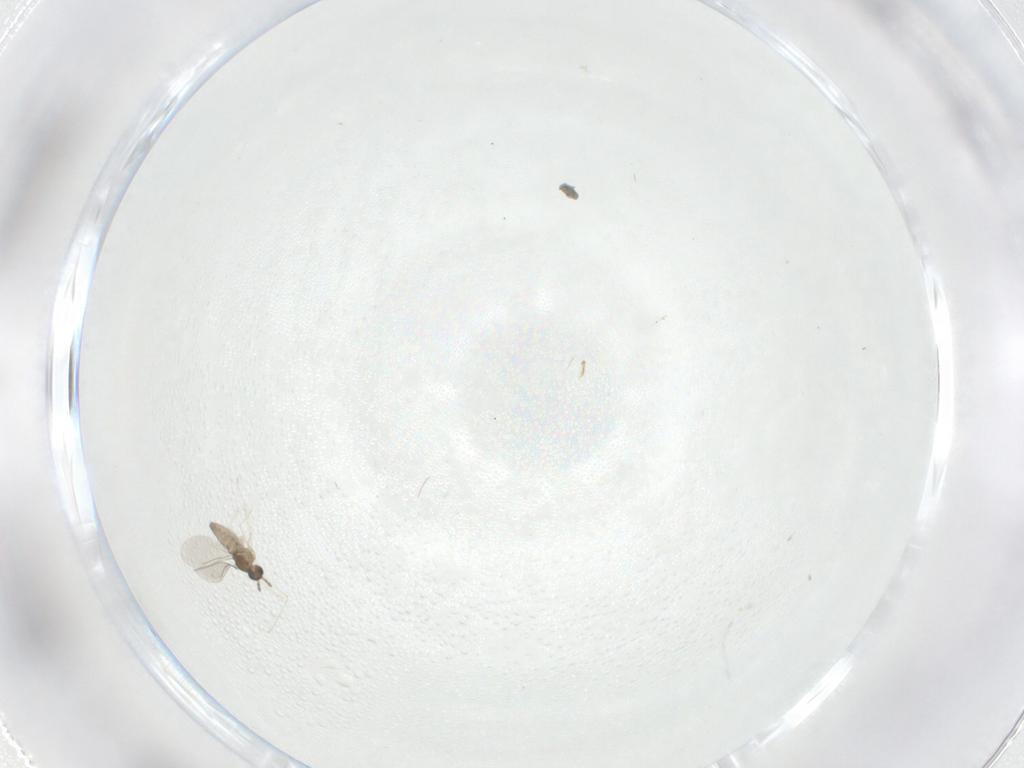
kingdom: Animalia
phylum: Arthropoda
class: Insecta
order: Diptera
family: Cecidomyiidae
